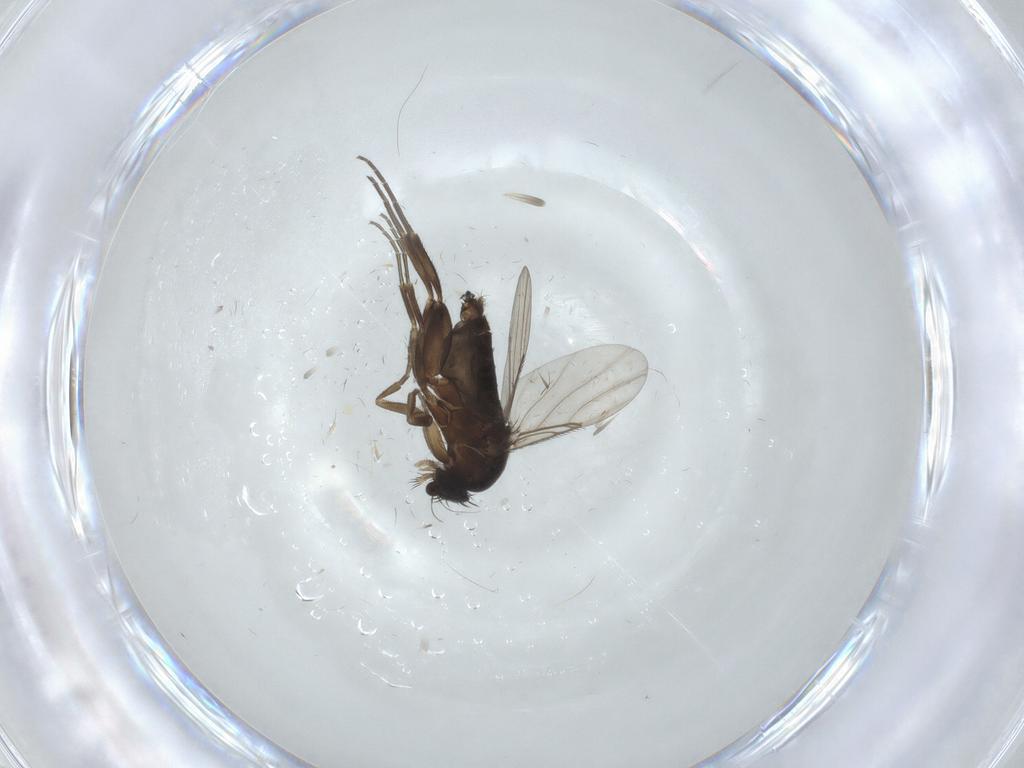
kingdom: Animalia
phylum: Arthropoda
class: Insecta
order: Diptera
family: Phoridae
